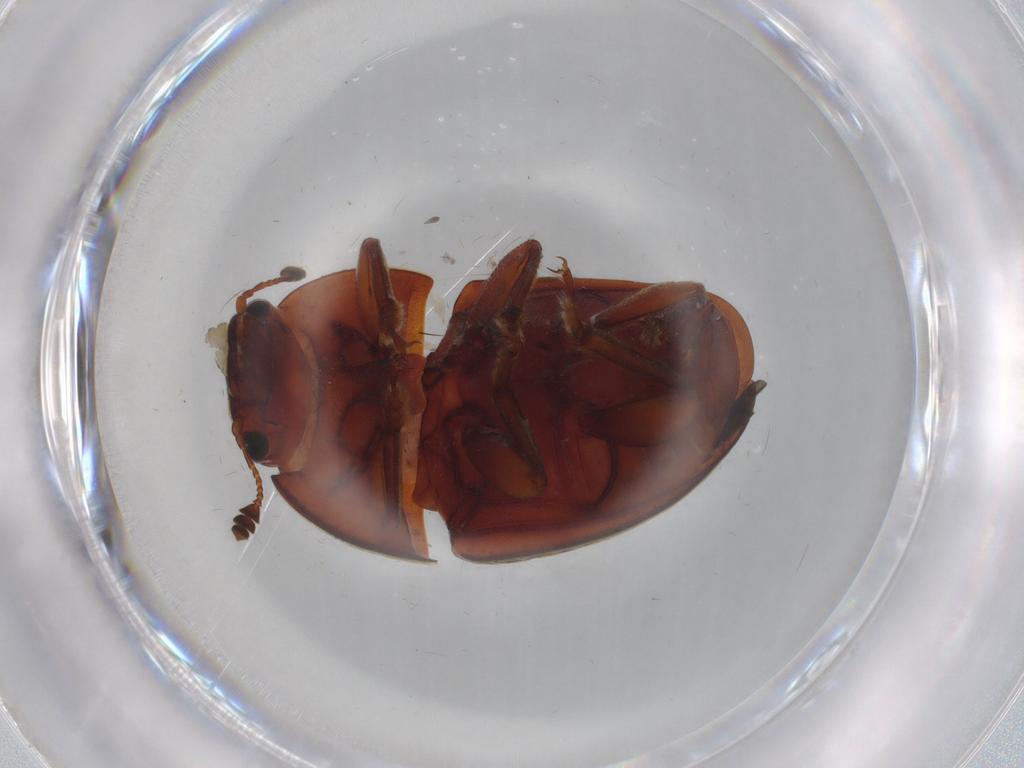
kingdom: Animalia
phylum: Arthropoda
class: Insecta
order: Coleoptera
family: Nitidulidae
